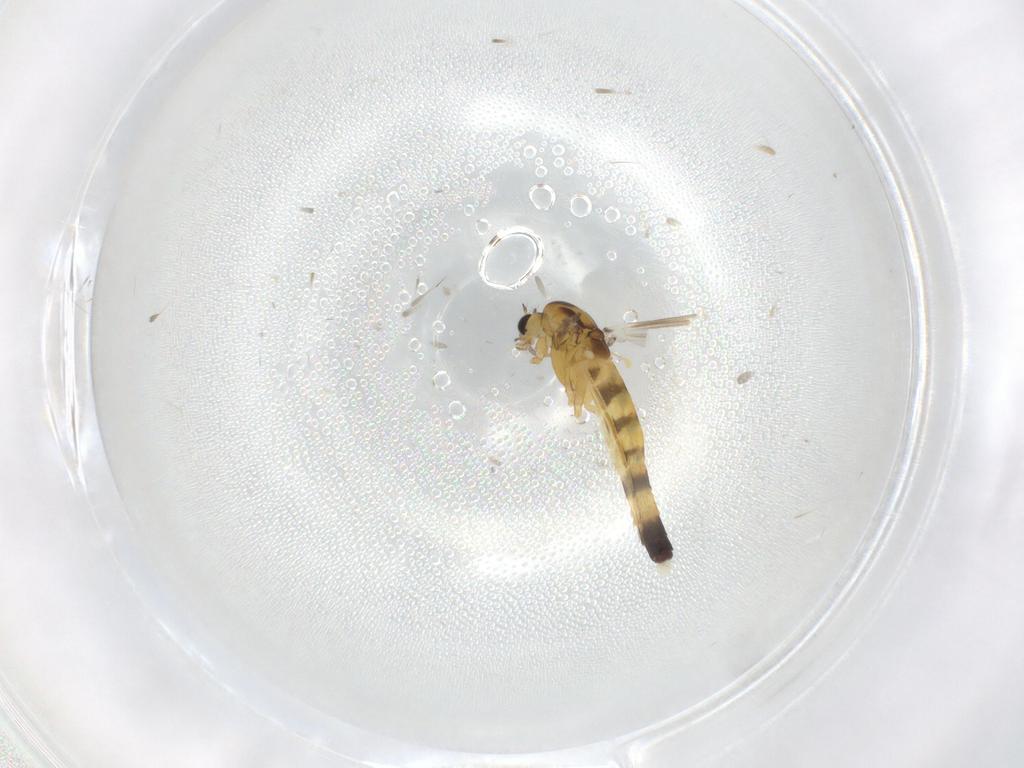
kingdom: Animalia
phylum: Arthropoda
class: Insecta
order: Diptera
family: Chironomidae
